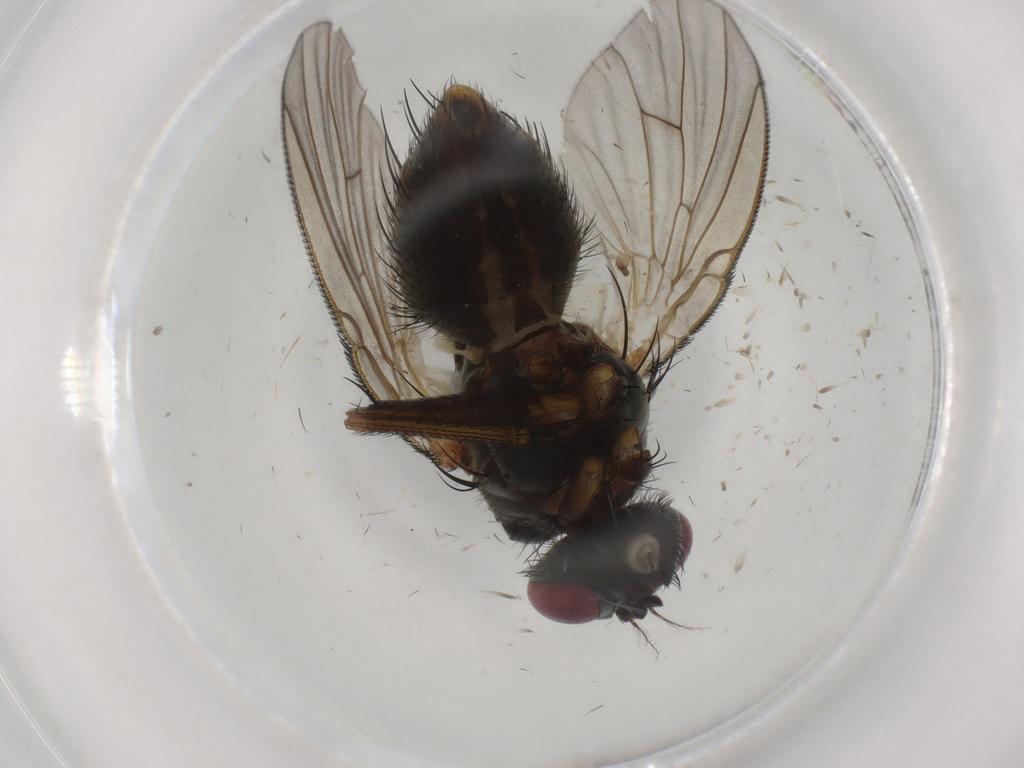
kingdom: Animalia
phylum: Arthropoda
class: Insecta
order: Diptera
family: Muscidae
